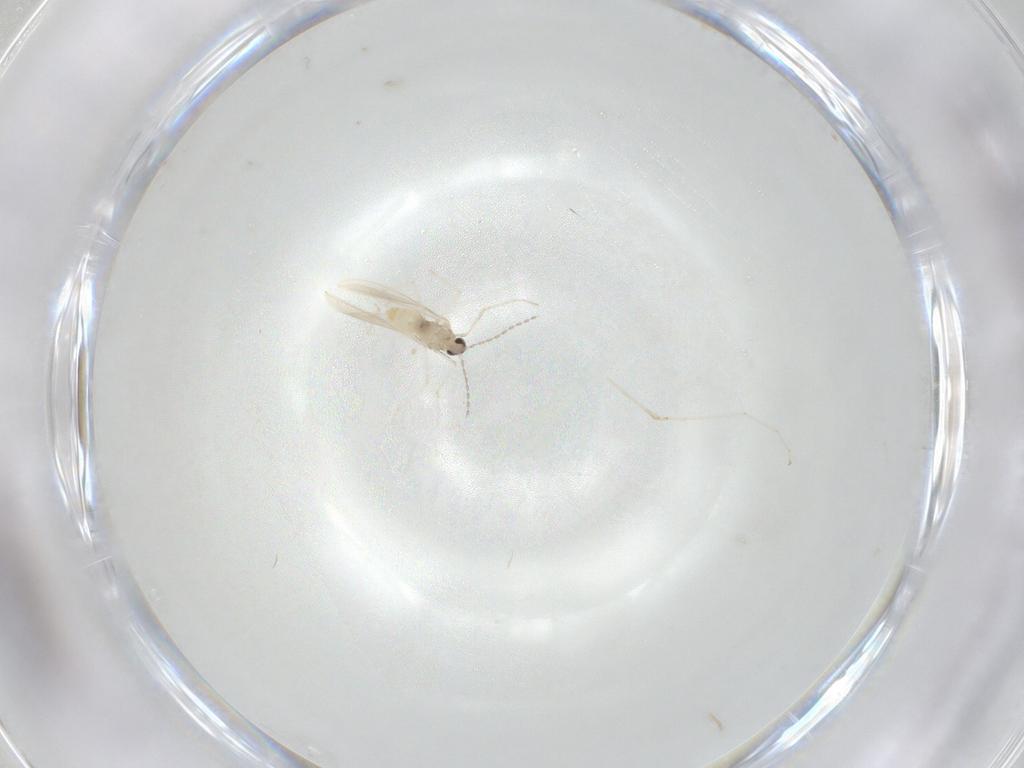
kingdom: Animalia
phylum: Arthropoda
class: Insecta
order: Diptera
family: Cecidomyiidae
